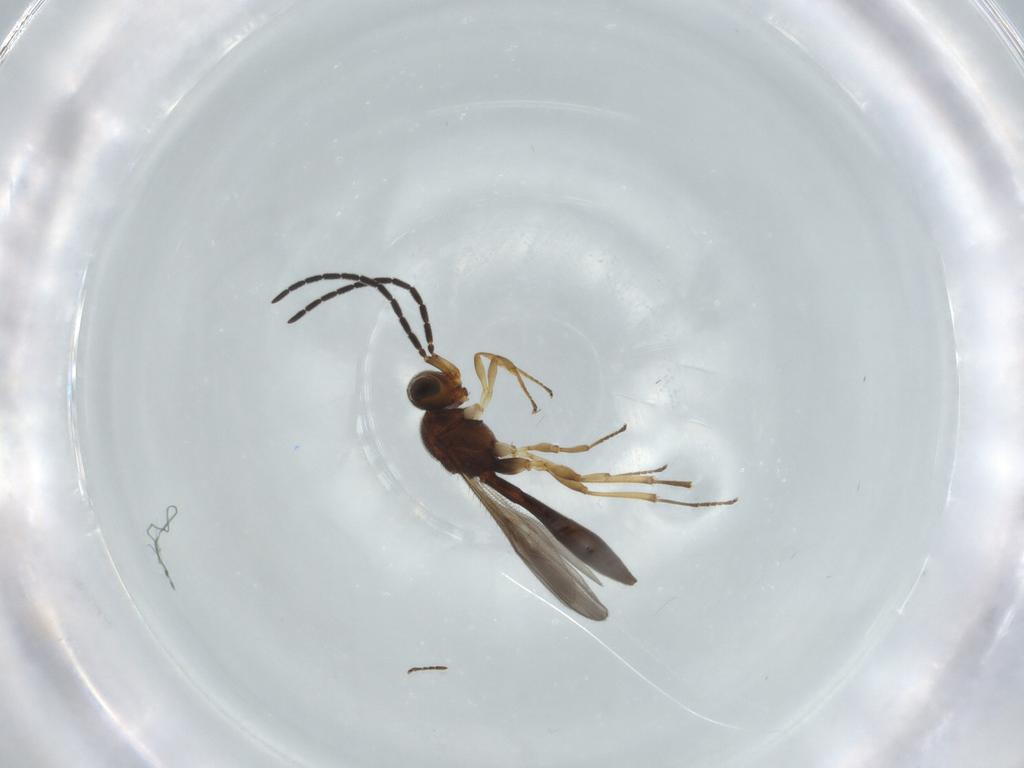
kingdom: Animalia
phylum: Arthropoda
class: Insecta
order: Hymenoptera
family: Scelionidae
